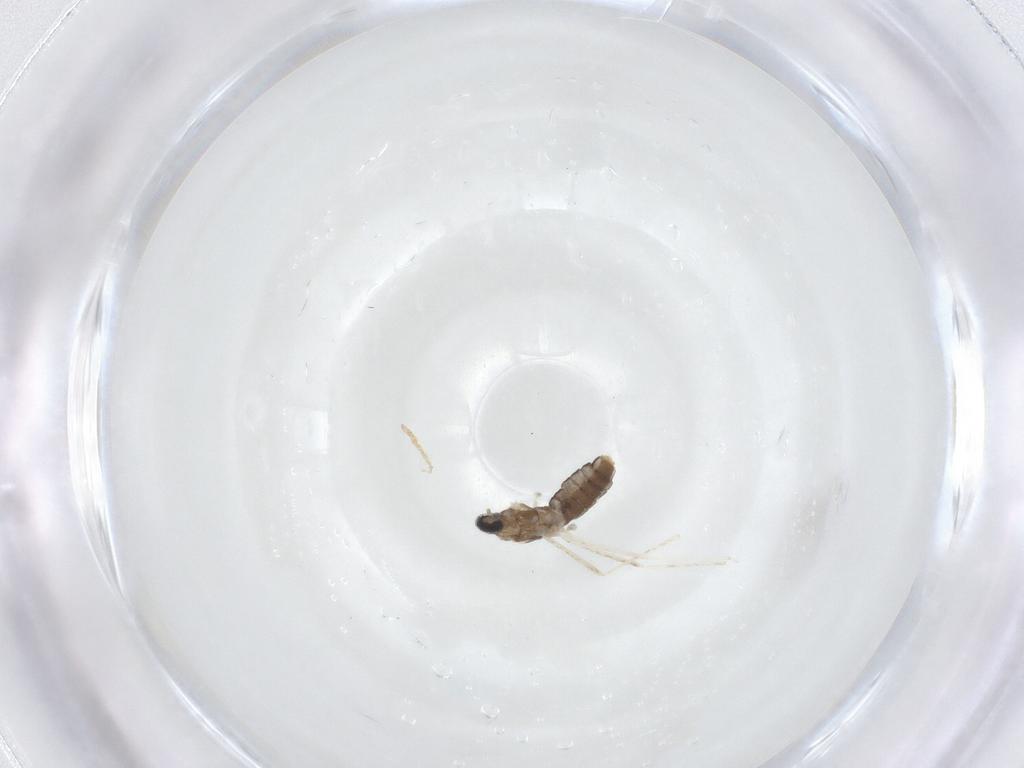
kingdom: Animalia
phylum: Arthropoda
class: Insecta
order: Diptera
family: Cecidomyiidae
